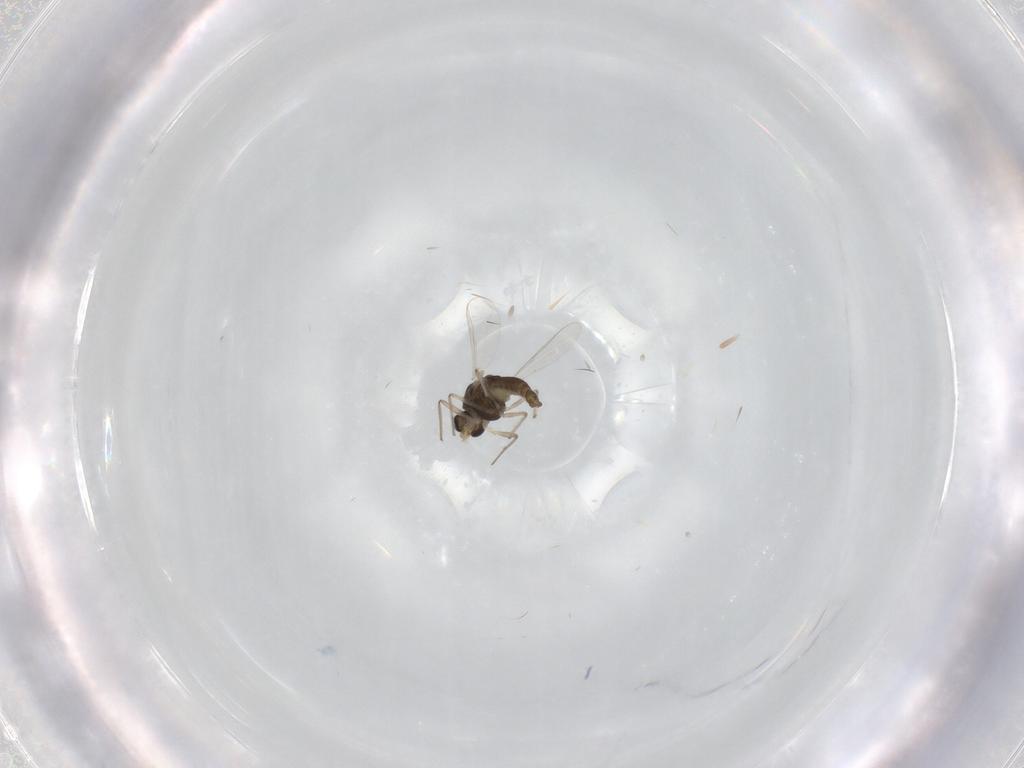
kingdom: Animalia
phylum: Arthropoda
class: Insecta
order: Diptera
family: Chironomidae
